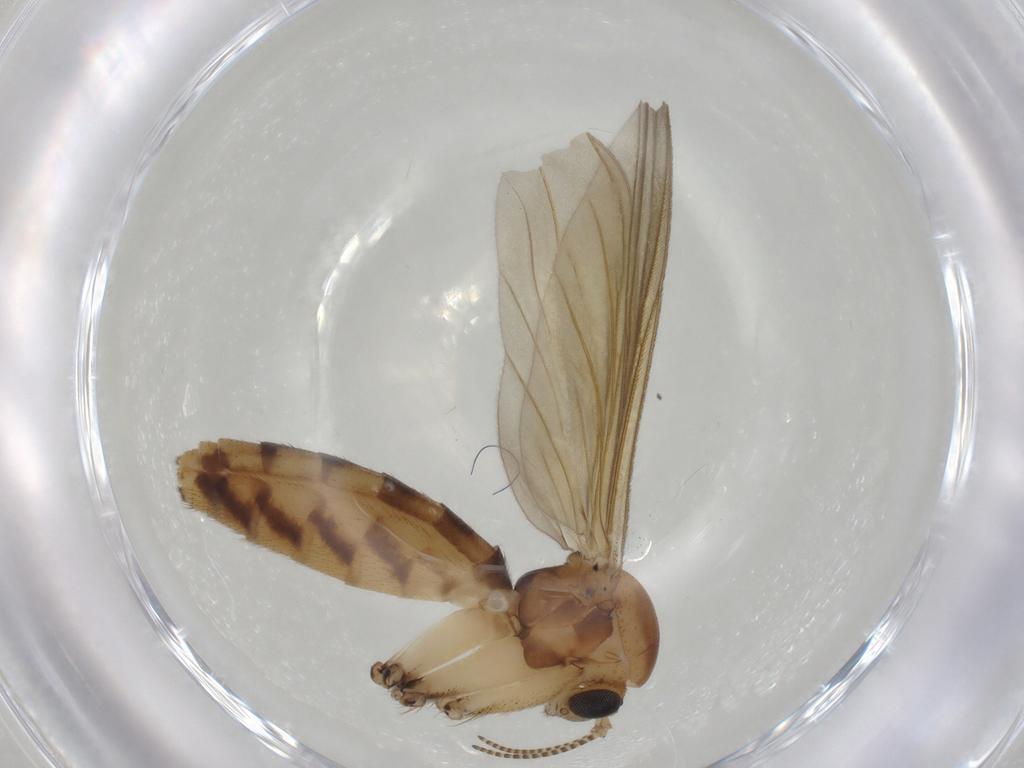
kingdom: Animalia
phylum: Arthropoda
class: Insecta
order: Diptera
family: Mycetophilidae
